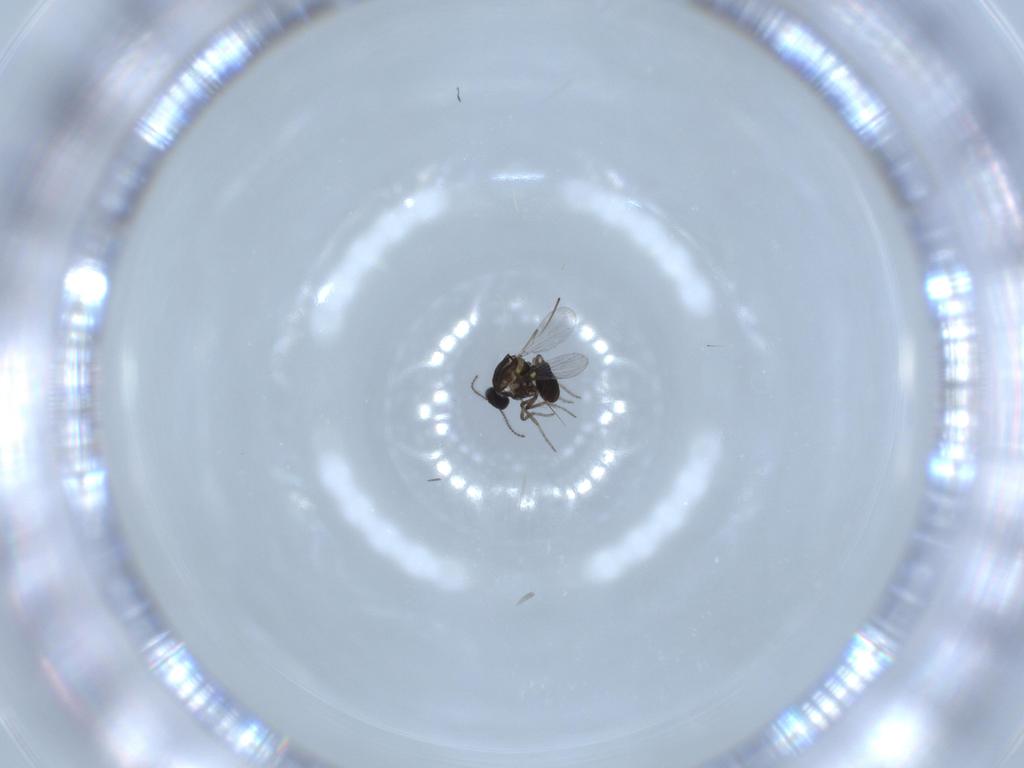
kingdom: Animalia
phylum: Arthropoda
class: Insecta
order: Diptera
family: Ceratopogonidae
